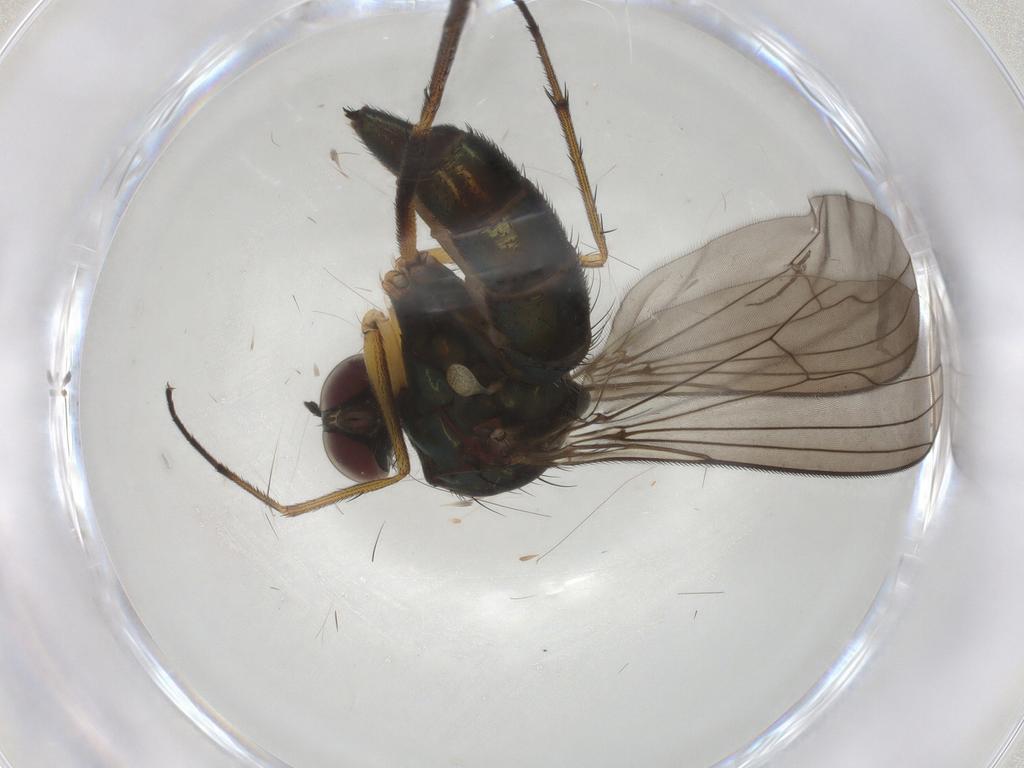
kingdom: Animalia
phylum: Arthropoda
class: Insecta
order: Diptera
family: Dolichopodidae
